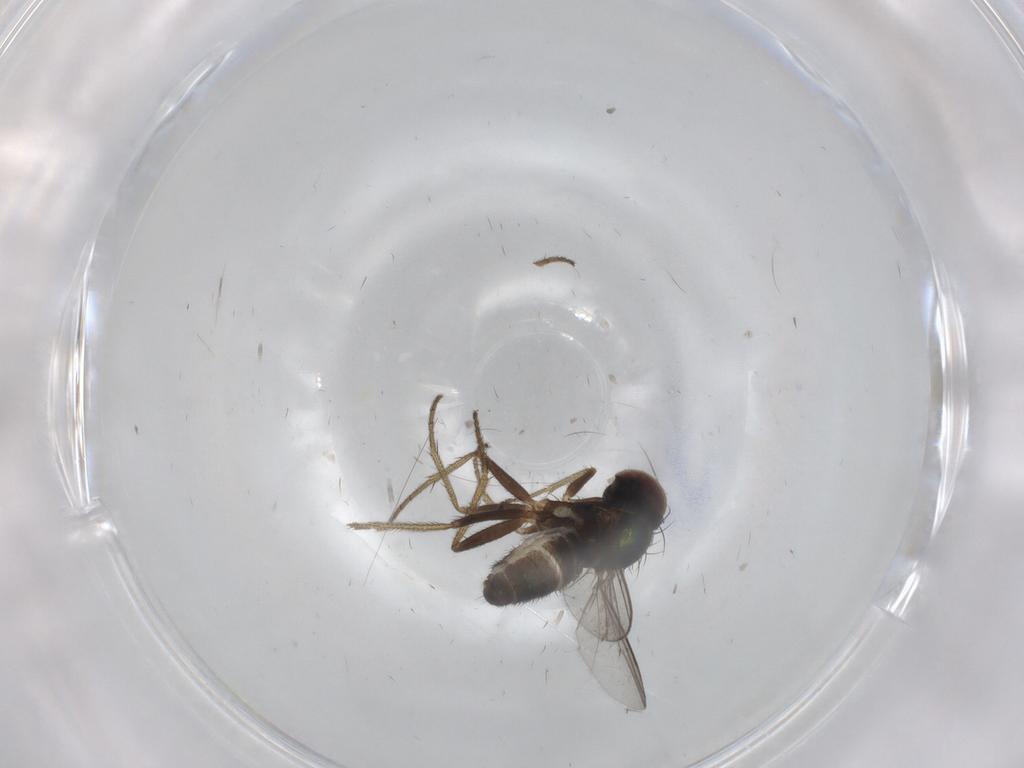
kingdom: Animalia
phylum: Arthropoda
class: Insecta
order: Diptera
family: Dolichopodidae
